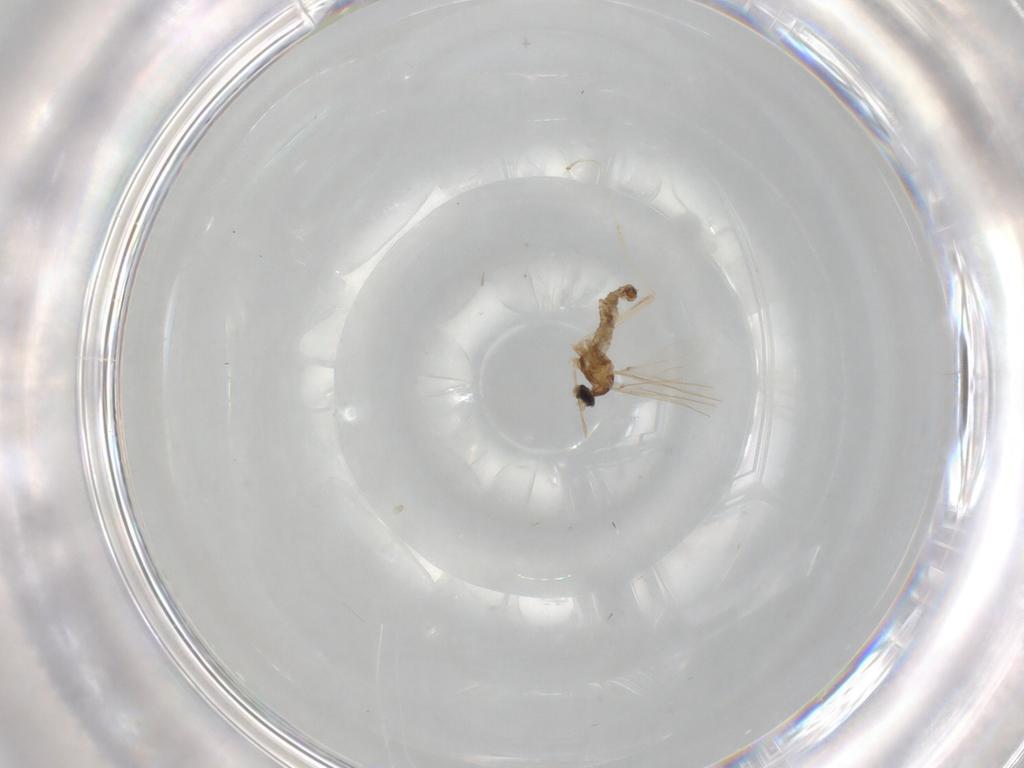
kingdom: Animalia
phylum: Arthropoda
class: Insecta
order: Diptera
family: Cecidomyiidae
